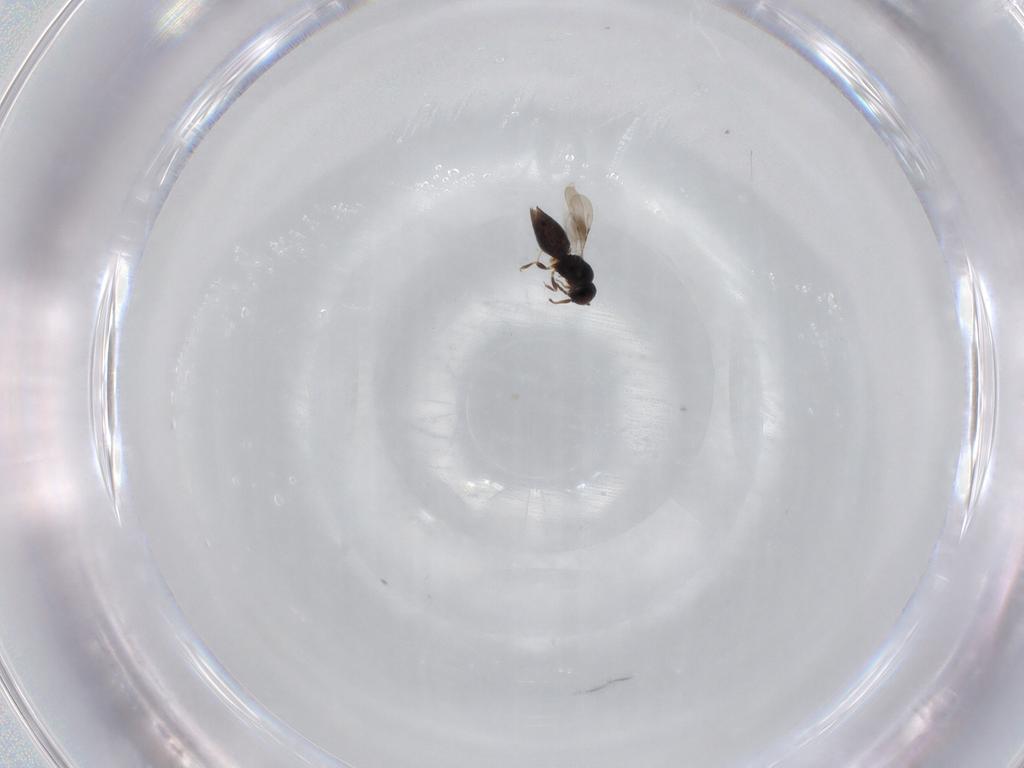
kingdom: Animalia
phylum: Arthropoda
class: Insecta
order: Hymenoptera
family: Ichneumonidae
